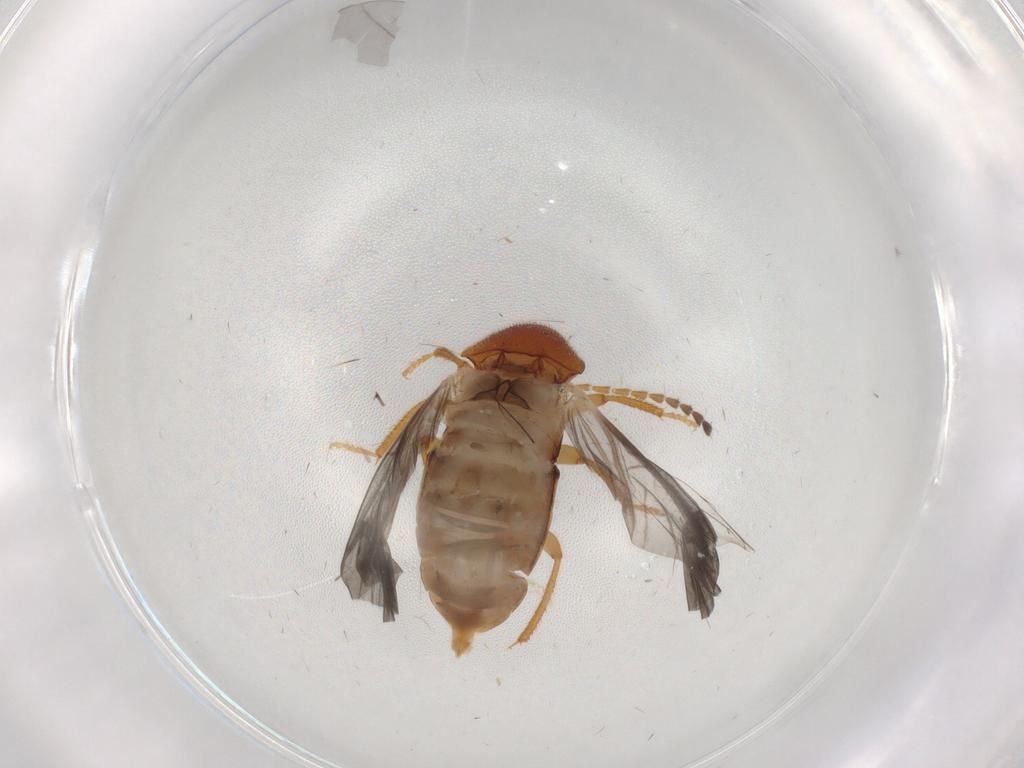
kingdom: Animalia
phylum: Arthropoda
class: Insecta
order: Coleoptera
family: Ptilodactylidae
